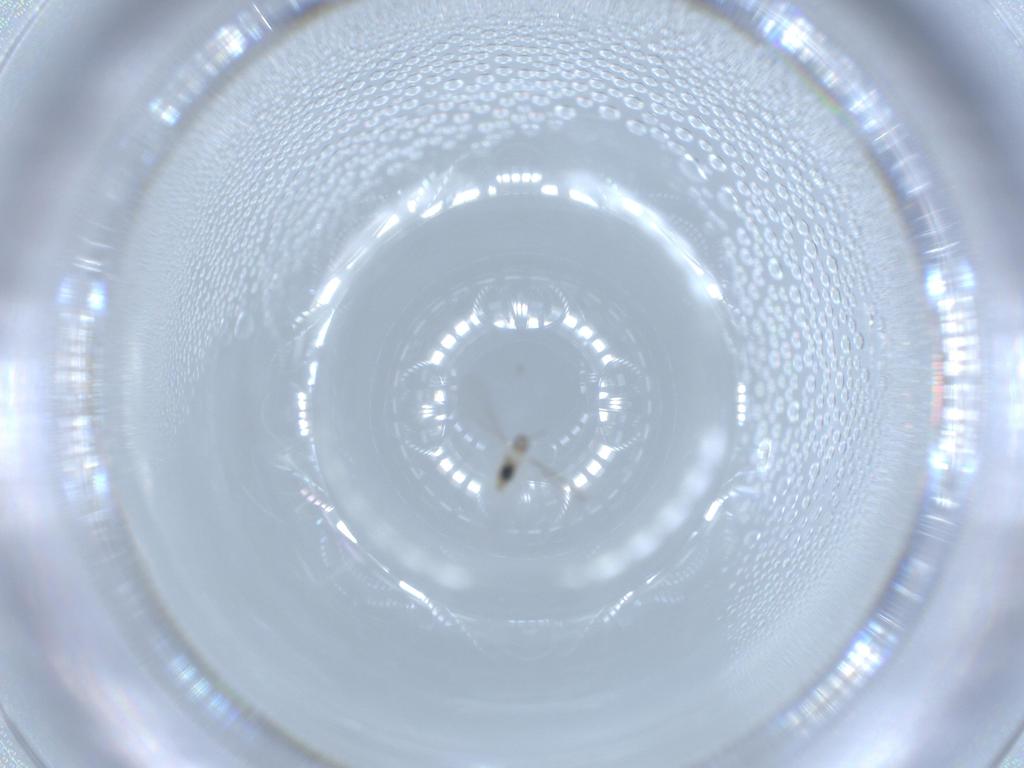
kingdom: Animalia
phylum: Arthropoda
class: Insecta
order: Diptera
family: Cecidomyiidae
